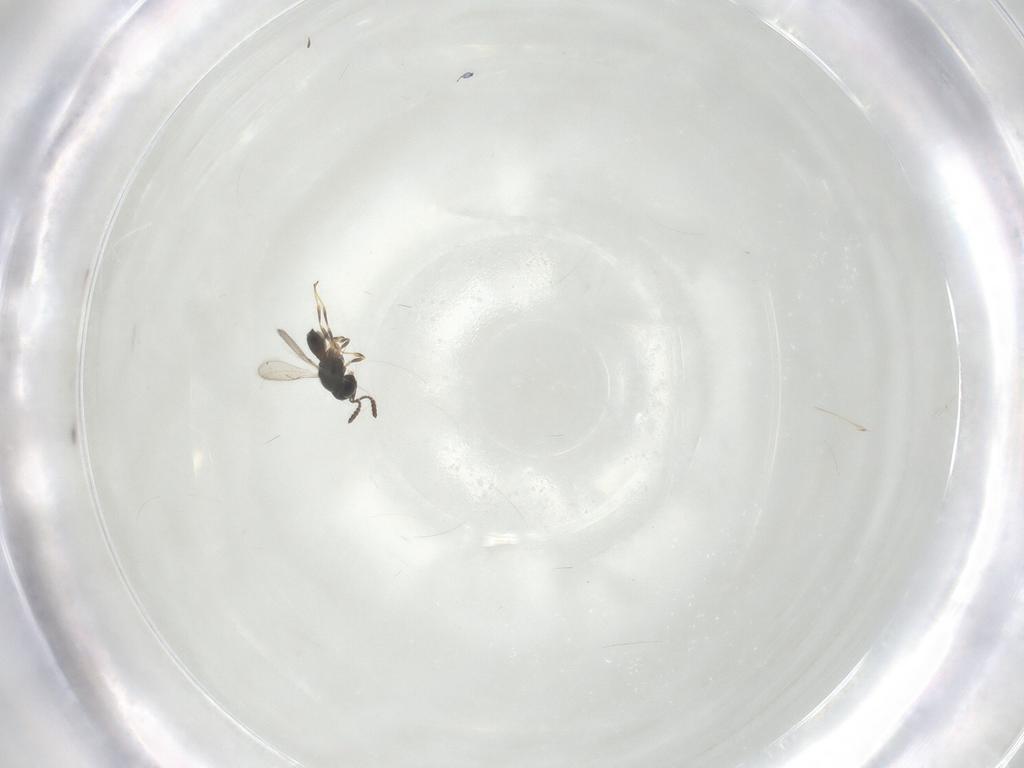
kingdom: Animalia
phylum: Arthropoda
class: Insecta
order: Hymenoptera
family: Scelionidae
